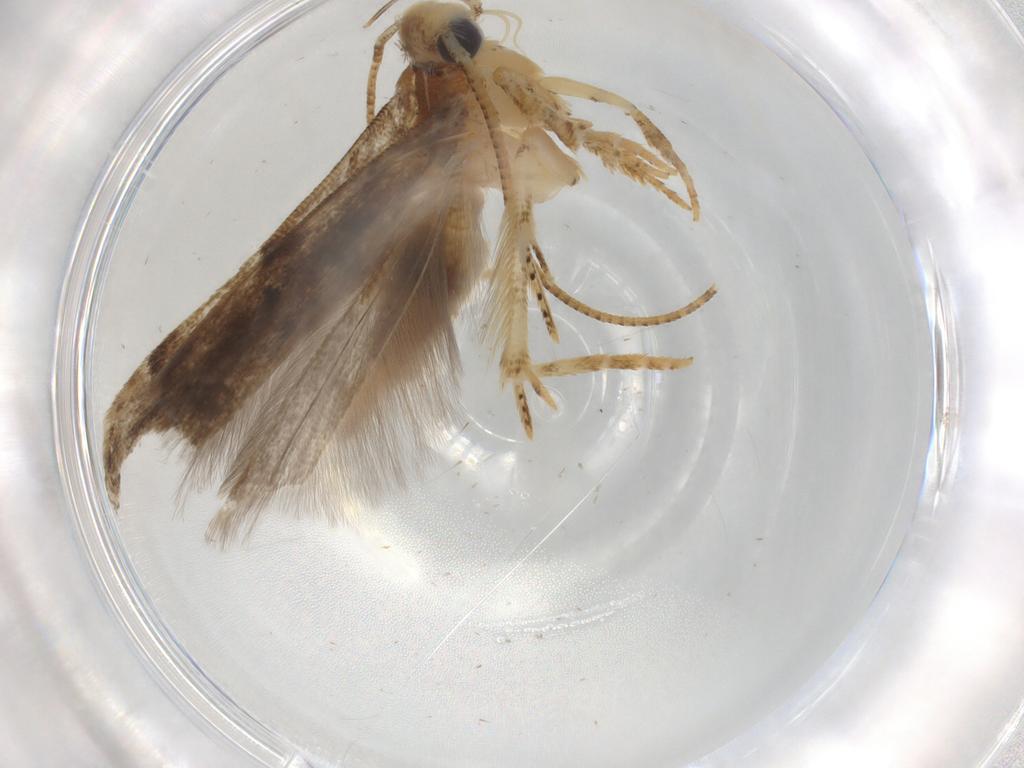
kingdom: Animalia
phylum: Arthropoda
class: Insecta
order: Lepidoptera
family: Gelechiidae
